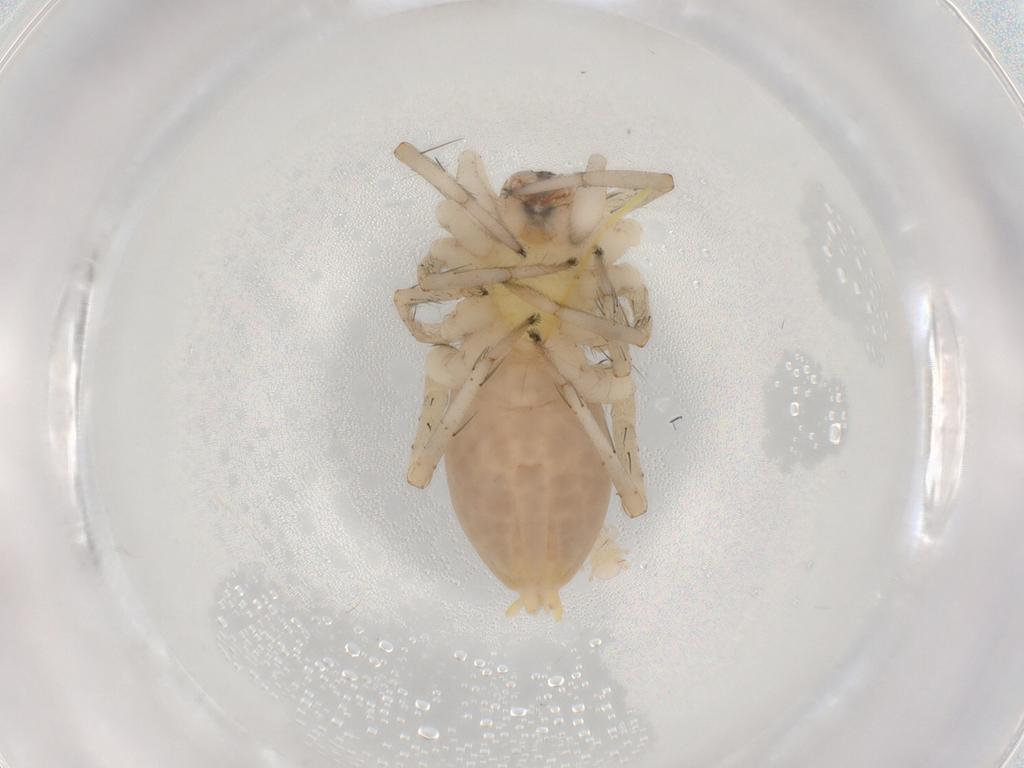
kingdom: Animalia
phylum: Arthropoda
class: Arachnida
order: Araneae
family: Anyphaenidae
